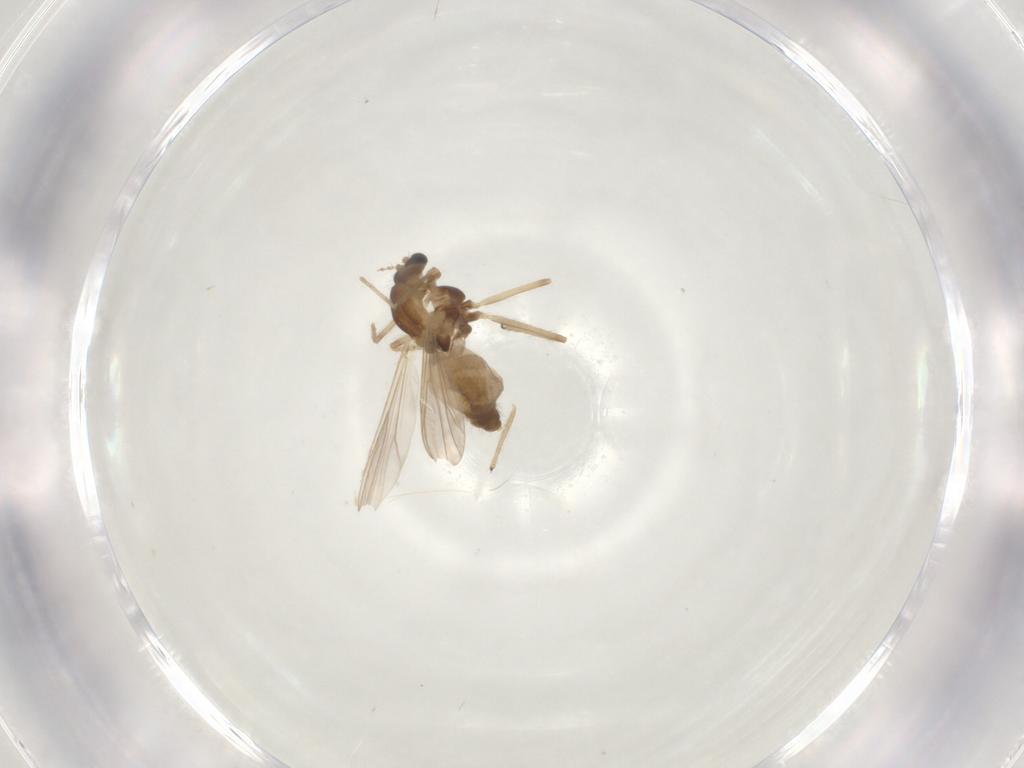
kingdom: Animalia
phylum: Arthropoda
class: Insecta
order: Diptera
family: Chironomidae
